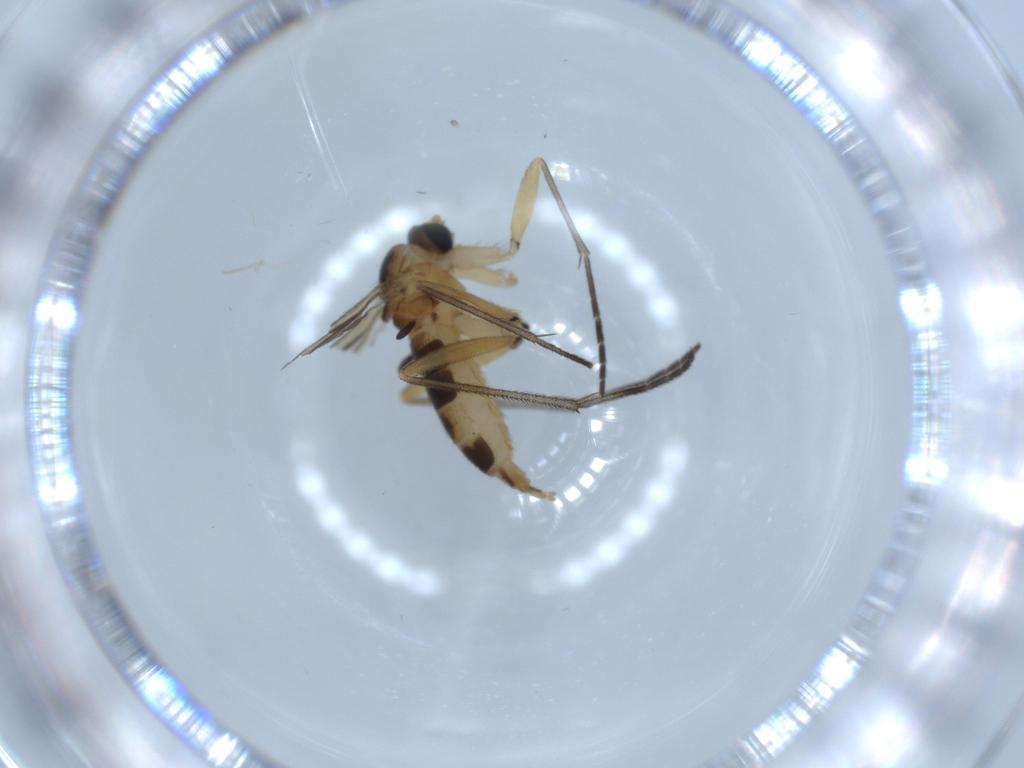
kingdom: Animalia
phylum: Arthropoda
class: Insecta
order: Diptera
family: Sciaridae
